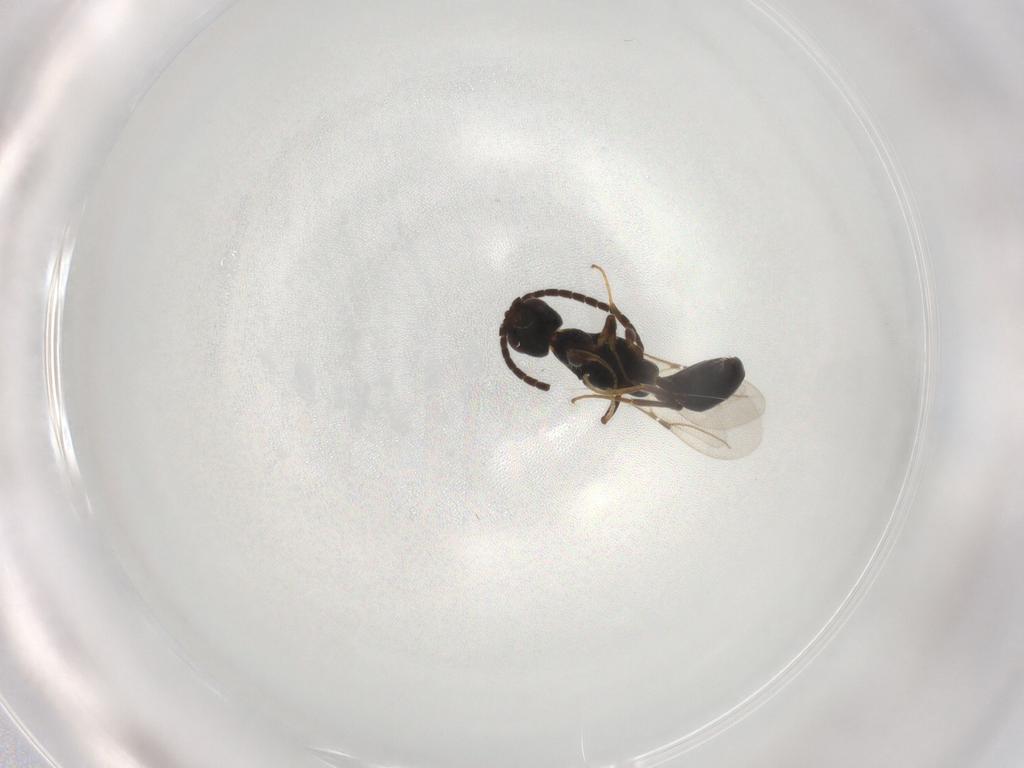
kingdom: Animalia
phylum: Arthropoda
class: Insecta
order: Hymenoptera
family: Bethylidae
